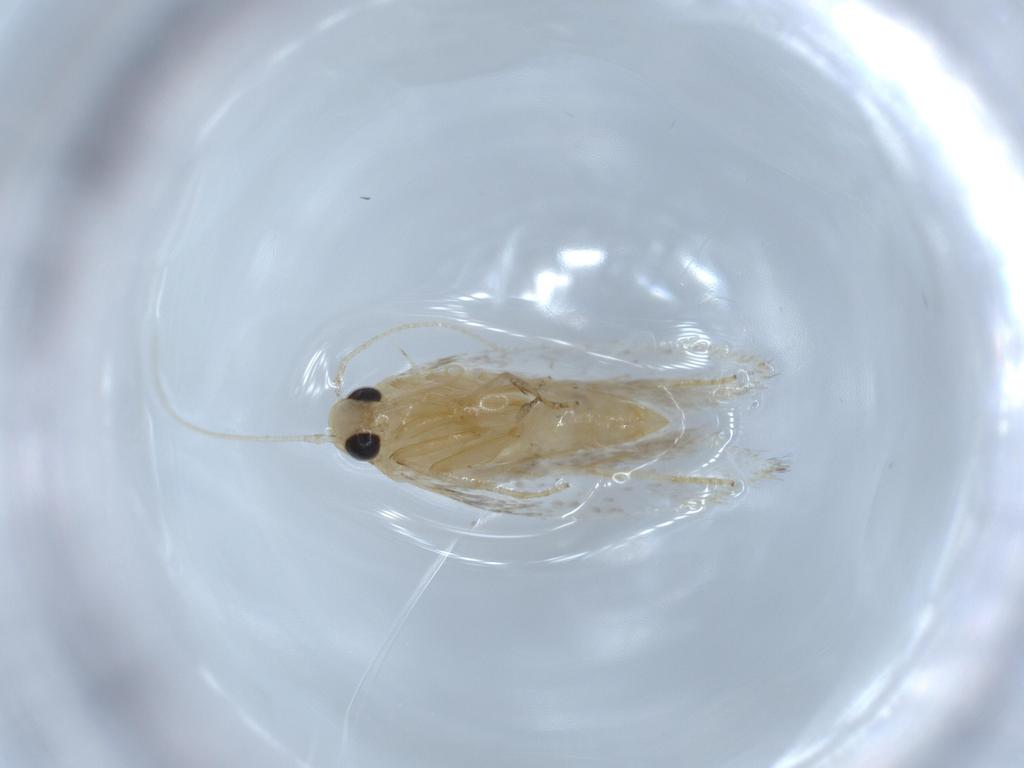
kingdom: Animalia
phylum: Arthropoda
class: Insecta
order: Lepidoptera
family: Autostichidae
